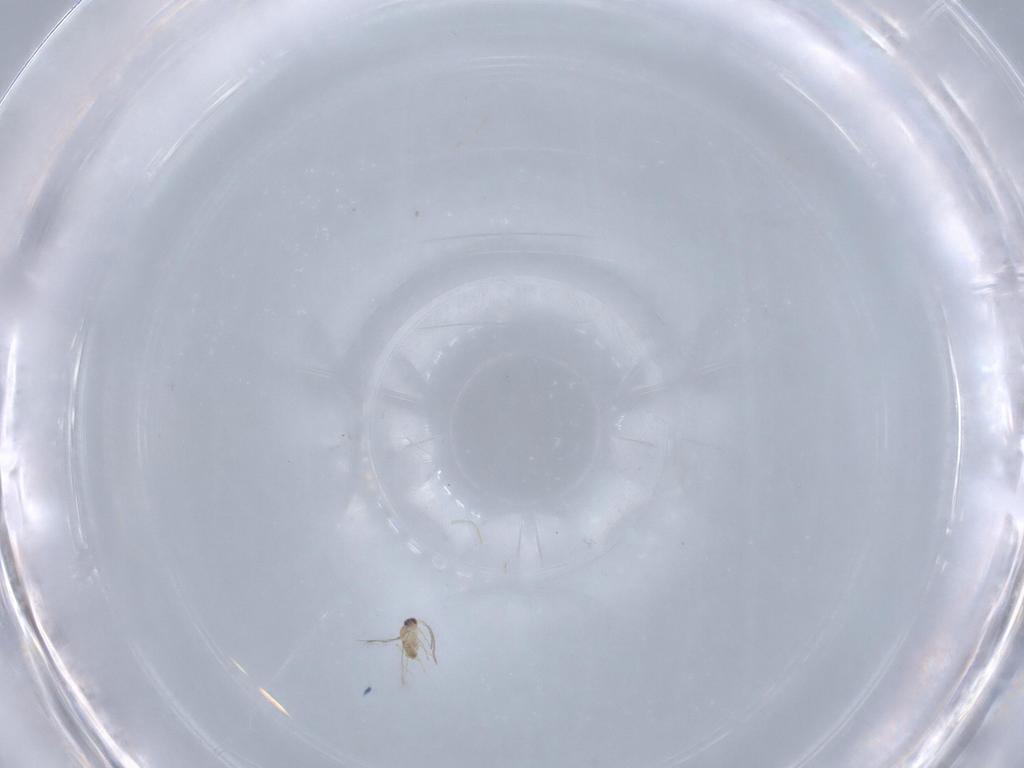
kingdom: Animalia
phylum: Arthropoda
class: Insecta
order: Hymenoptera
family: Mymaridae
